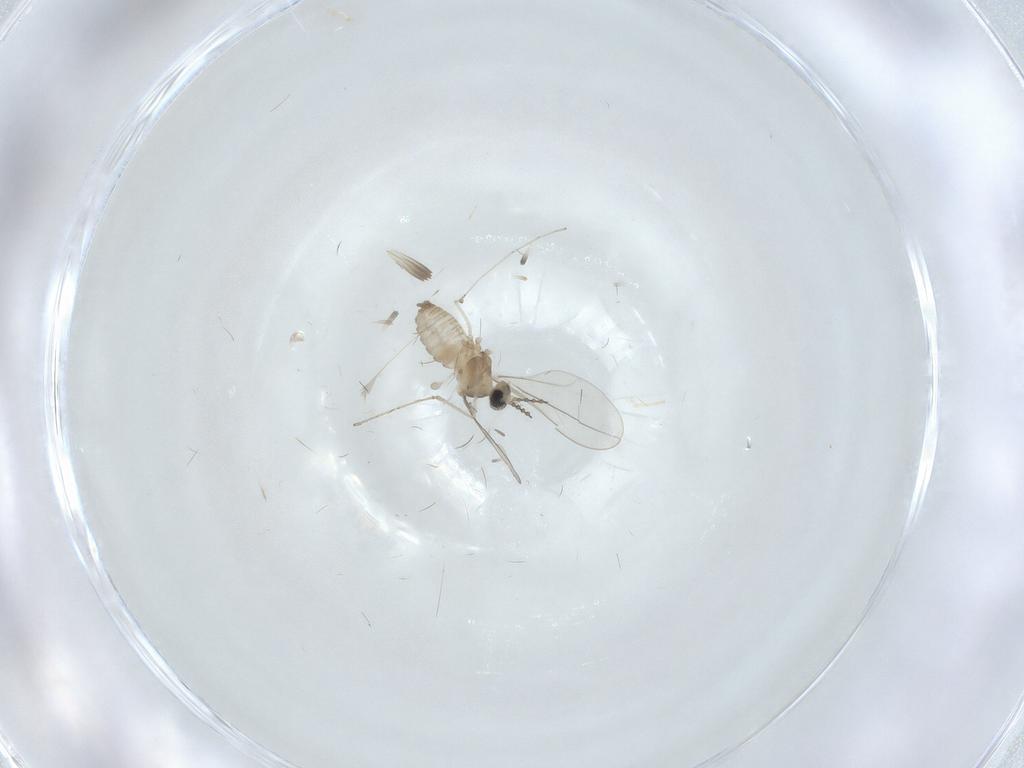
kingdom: Animalia
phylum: Arthropoda
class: Insecta
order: Diptera
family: Cecidomyiidae
